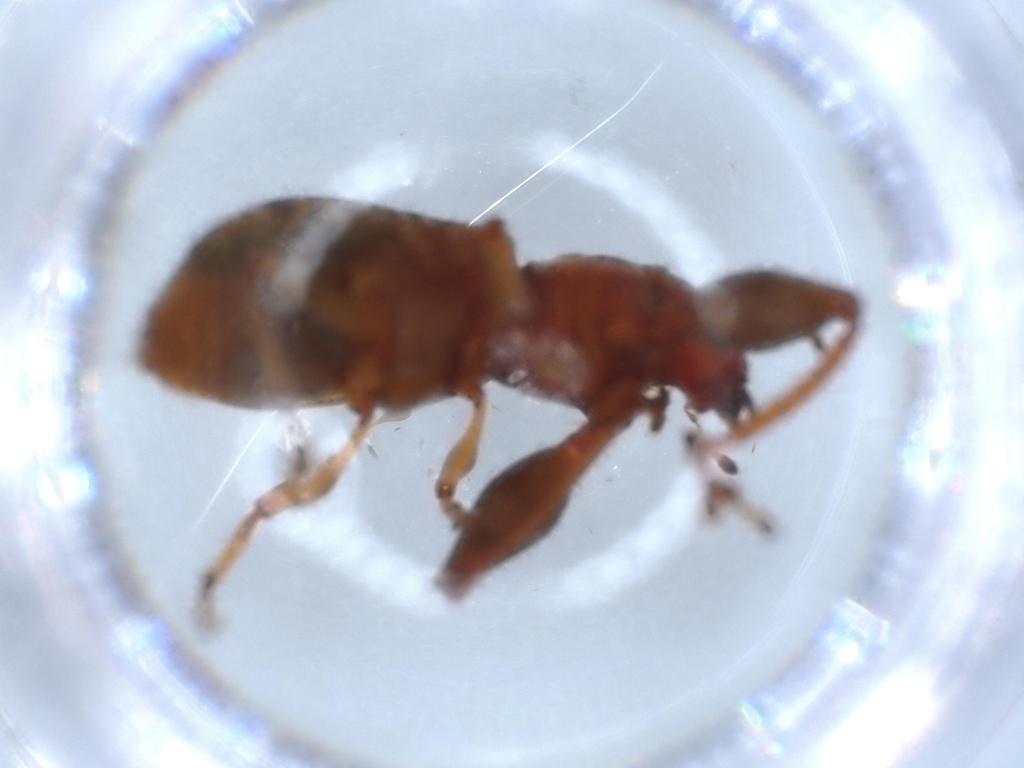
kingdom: Animalia
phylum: Arthropoda
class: Insecta
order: Coleoptera
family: Curculionidae
